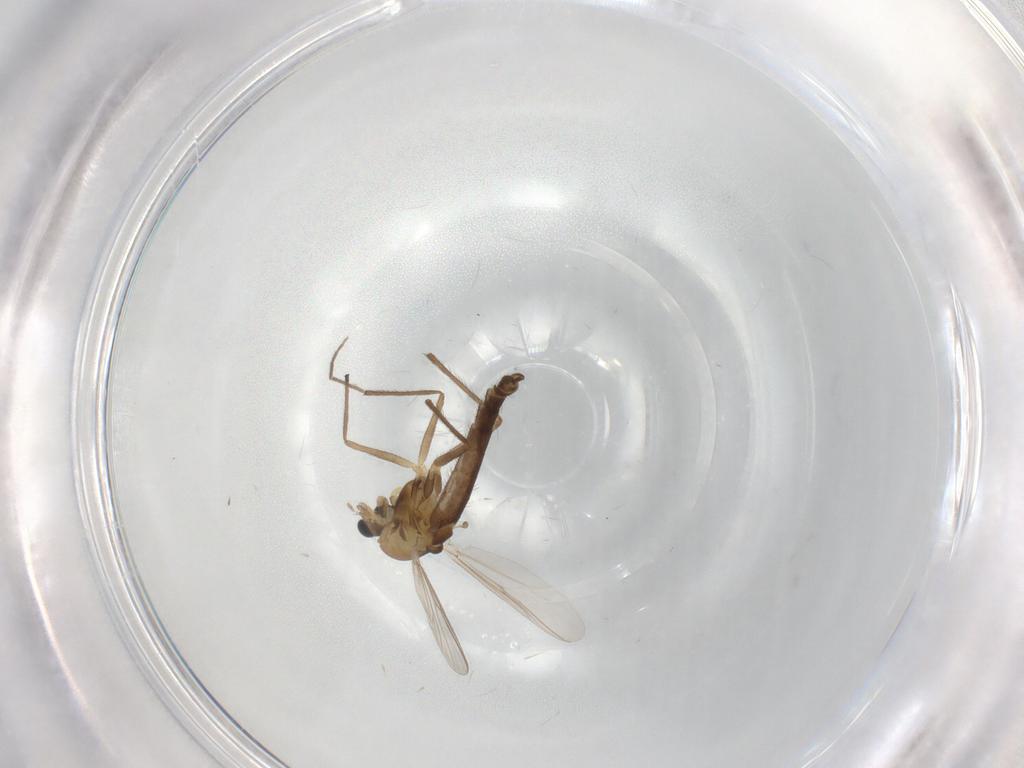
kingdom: Animalia
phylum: Arthropoda
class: Insecta
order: Diptera
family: Chironomidae
